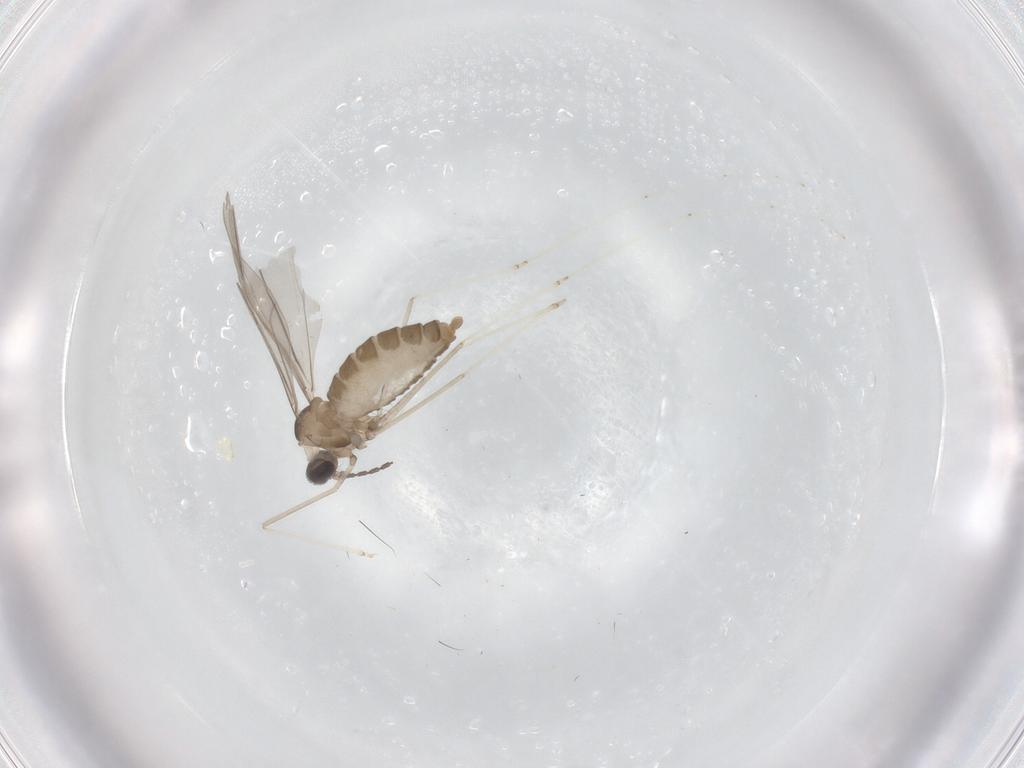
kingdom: Animalia
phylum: Arthropoda
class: Insecta
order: Diptera
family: Cecidomyiidae
